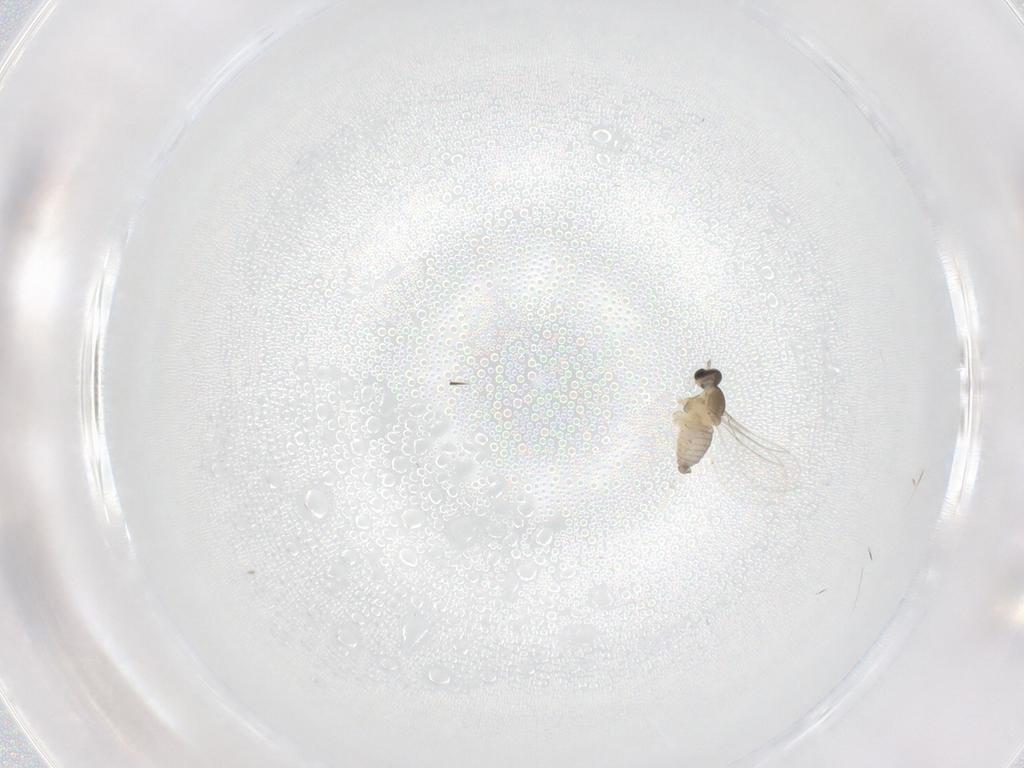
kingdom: Animalia
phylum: Arthropoda
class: Insecta
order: Diptera
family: Cecidomyiidae
